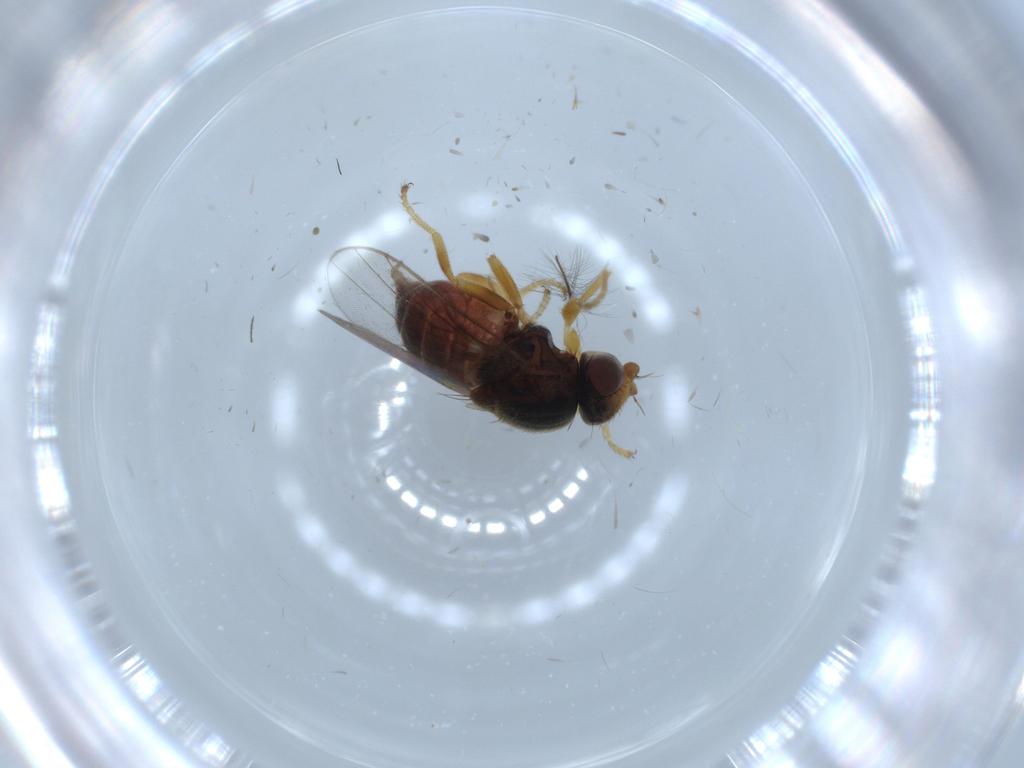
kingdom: Animalia
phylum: Arthropoda
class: Insecta
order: Diptera
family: Chloropidae
